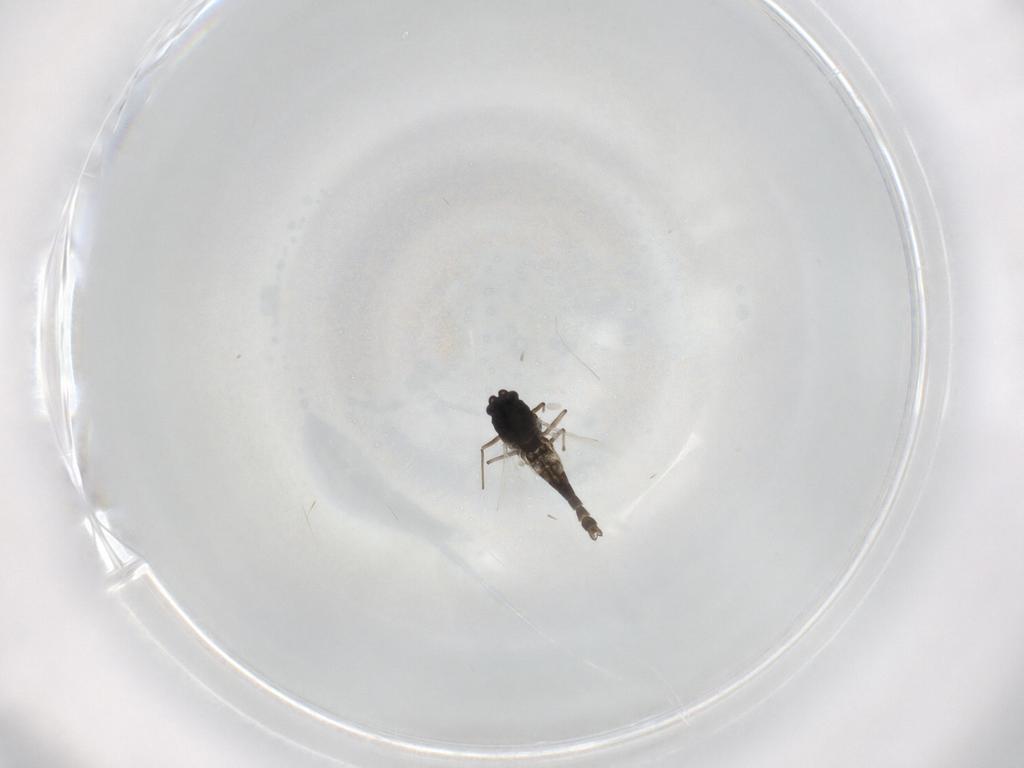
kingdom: Animalia
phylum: Arthropoda
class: Insecta
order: Diptera
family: Chironomidae
